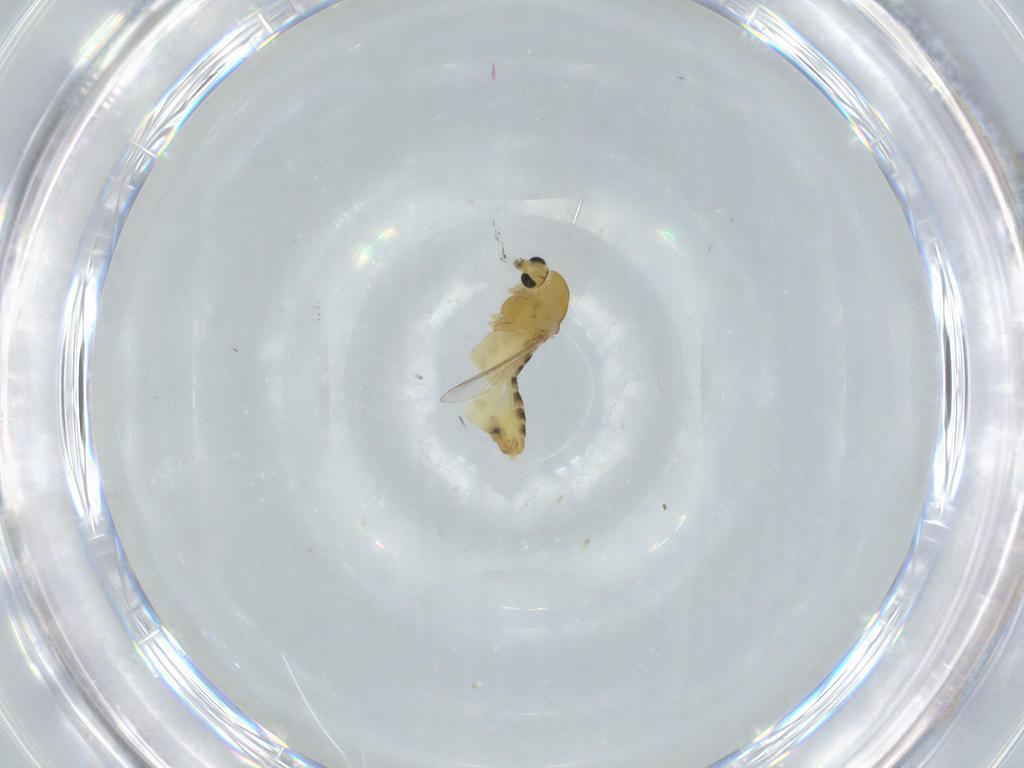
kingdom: Animalia
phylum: Arthropoda
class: Insecta
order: Diptera
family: Chironomidae
